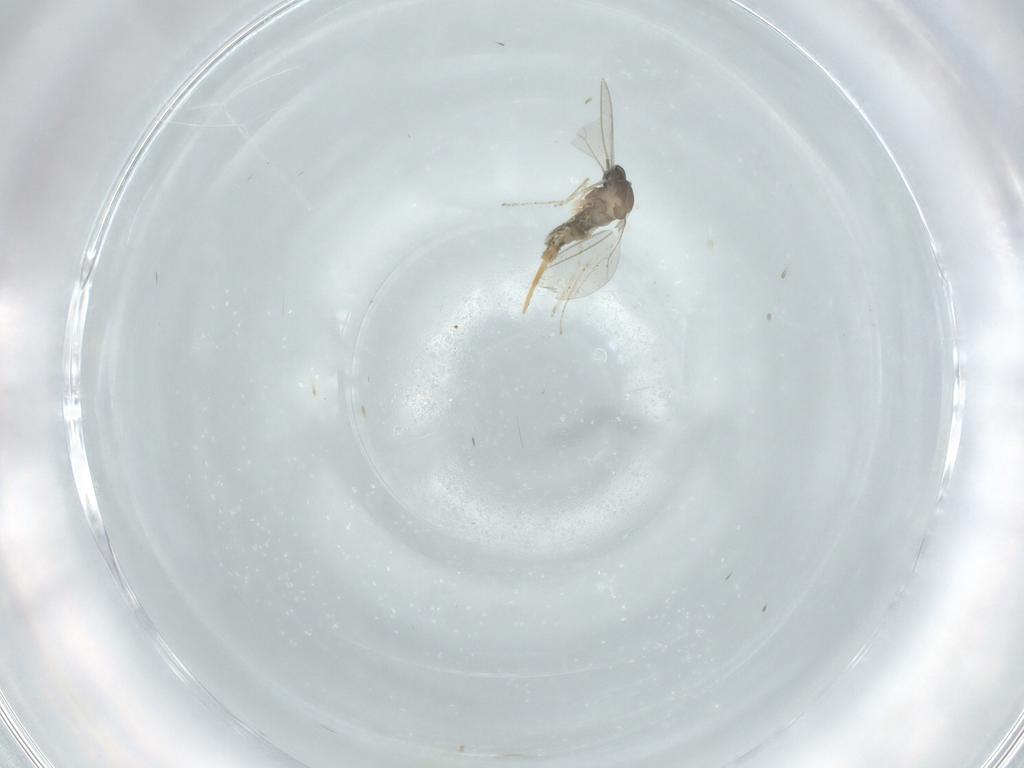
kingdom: Animalia
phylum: Arthropoda
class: Insecta
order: Diptera
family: Cecidomyiidae
